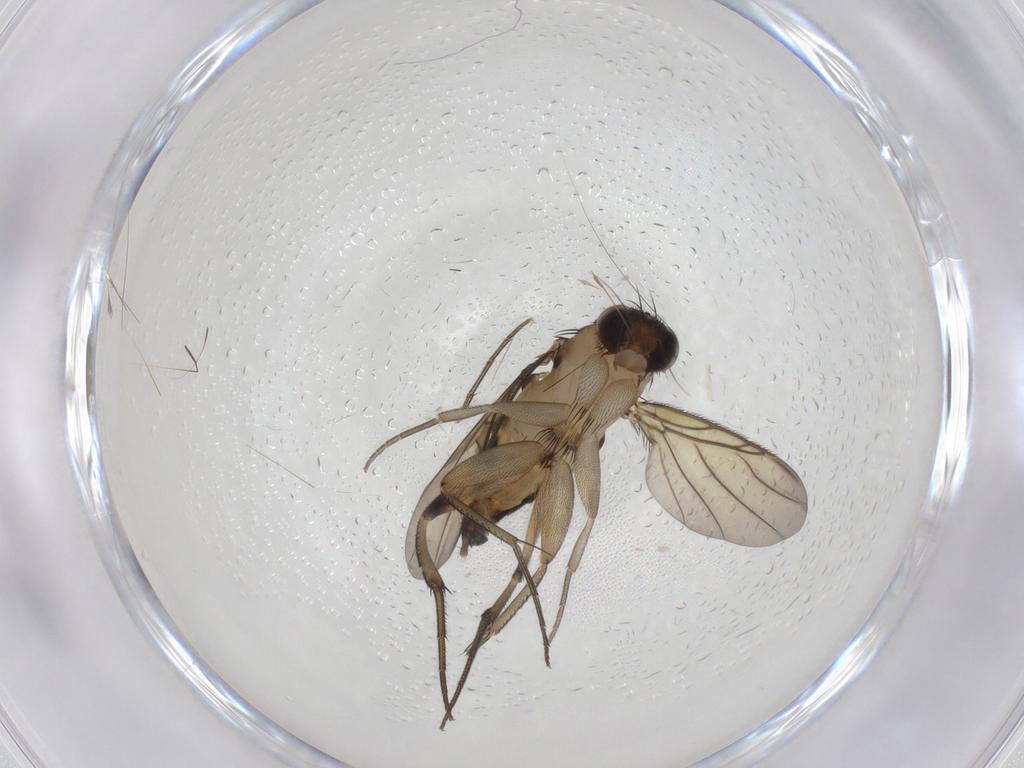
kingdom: Animalia
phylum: Arthropoda
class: Insecta
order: Diptera
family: Phoridae
